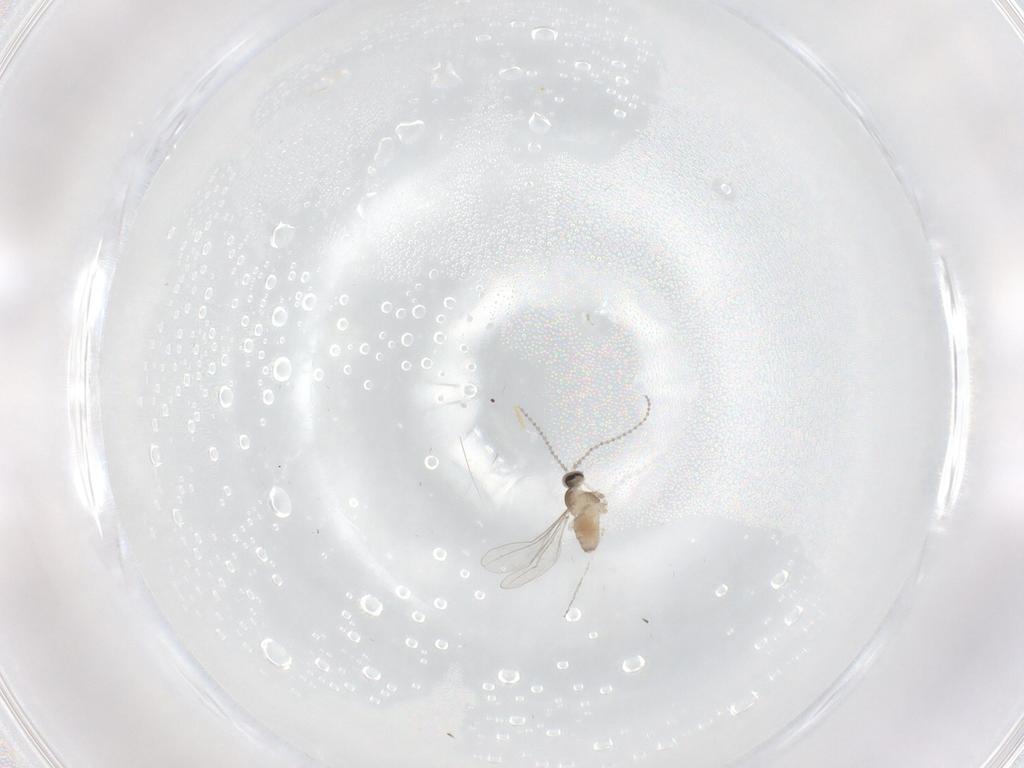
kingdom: Animalia
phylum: Arthropoda
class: Insecta
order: Diptera
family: Cecidomyiidae
